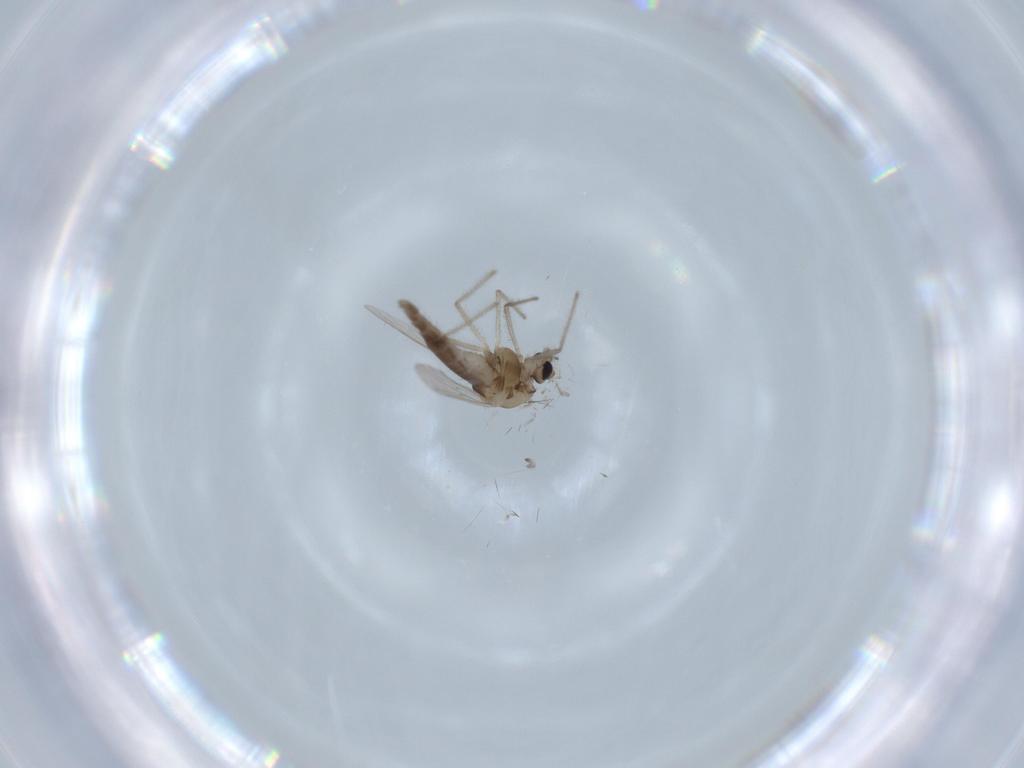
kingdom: Animalia
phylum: Arthropoda
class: Insecta
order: Diptera
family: Chironomidae
